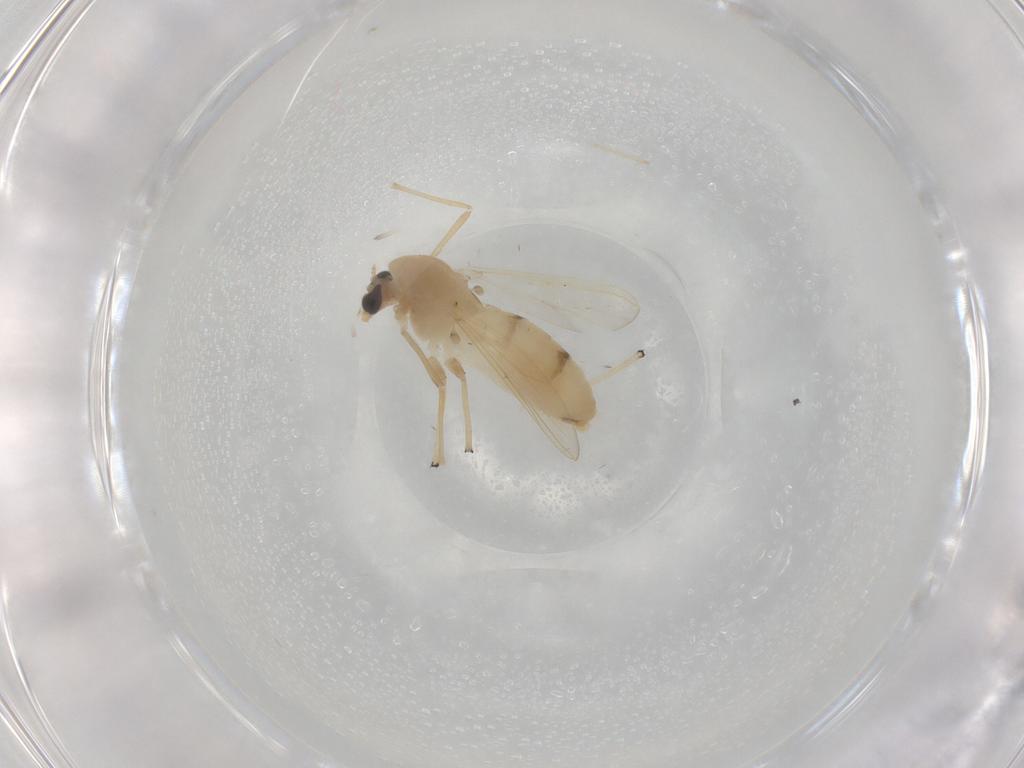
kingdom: Animalia
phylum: Arthropoda
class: Insecta
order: Diptera
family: Chironomidae
